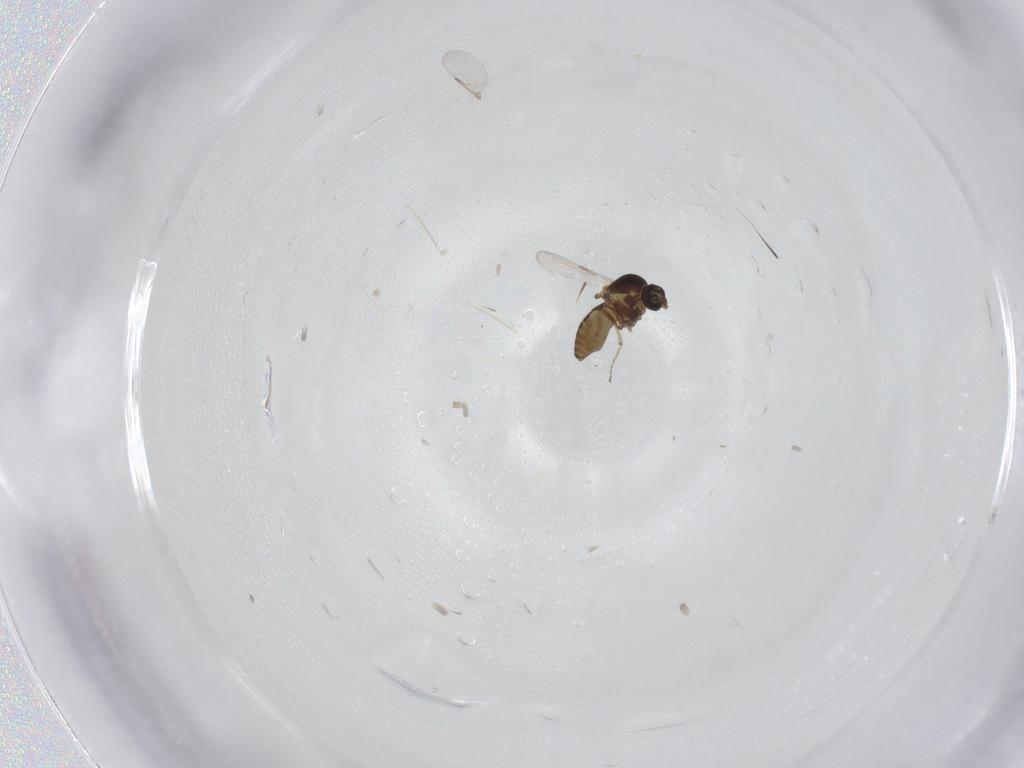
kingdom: Animalia
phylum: Arthropoda
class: Insecta
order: Diptera
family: Ceratopogonidae
